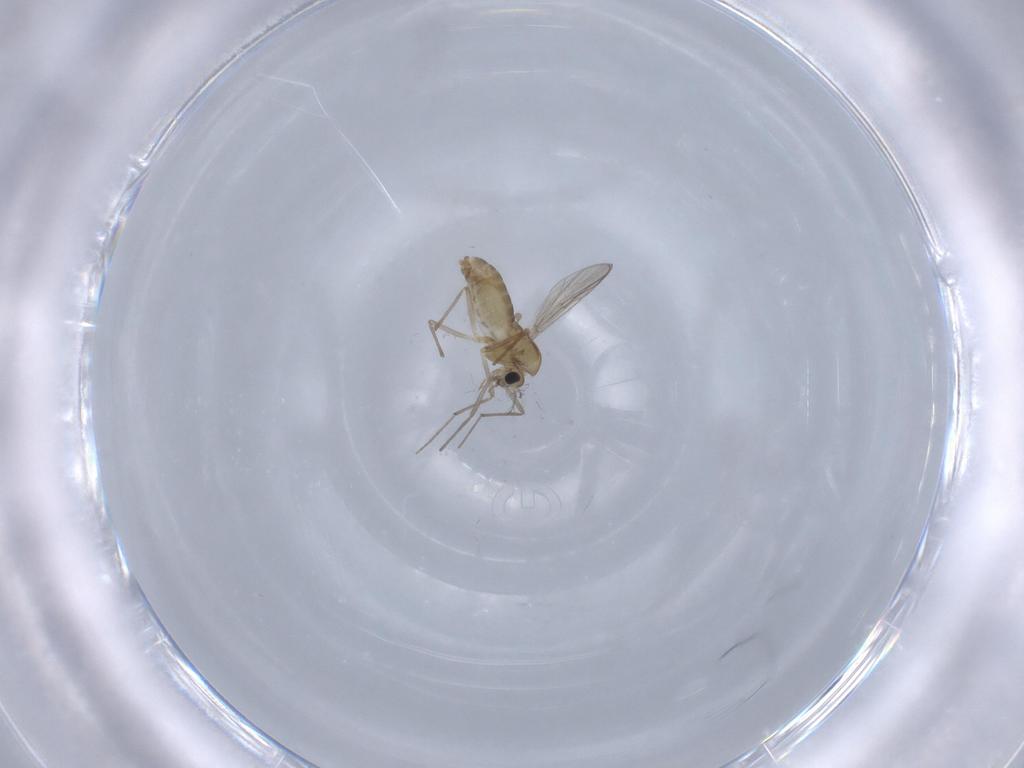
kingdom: Animalia
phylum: Arthropoda
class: Insecta
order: Diptera
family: Chironomidae
